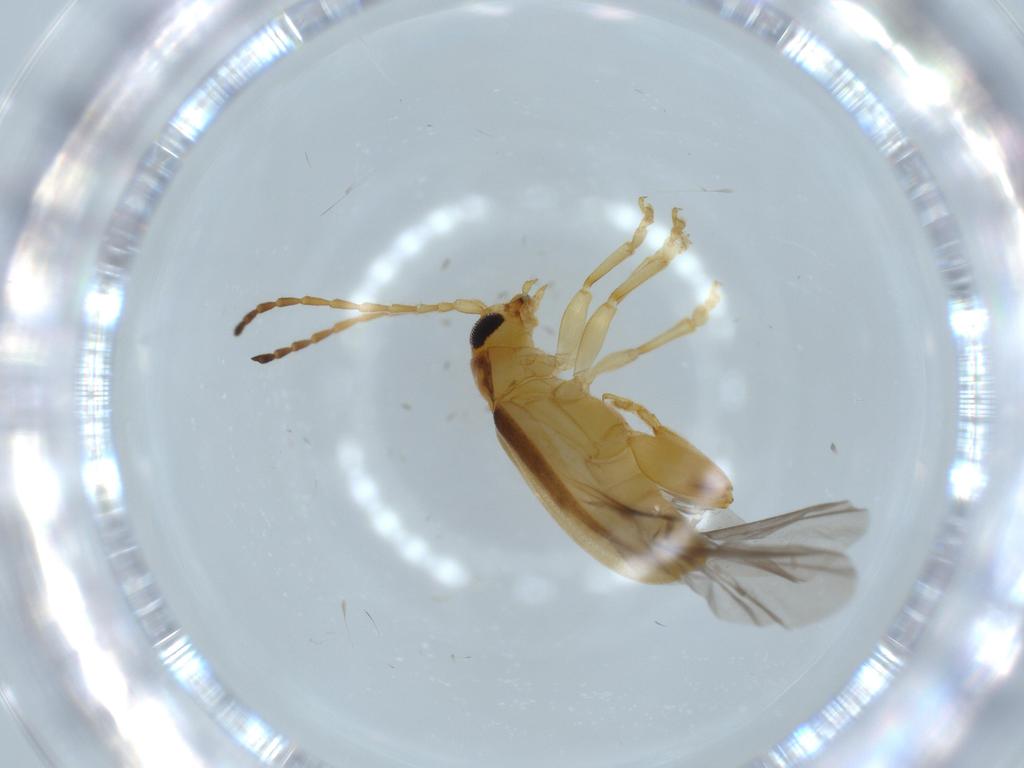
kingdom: Animalia
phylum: Arthropoda
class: Insecta
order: Coleoptera
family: Chrysomelidae
